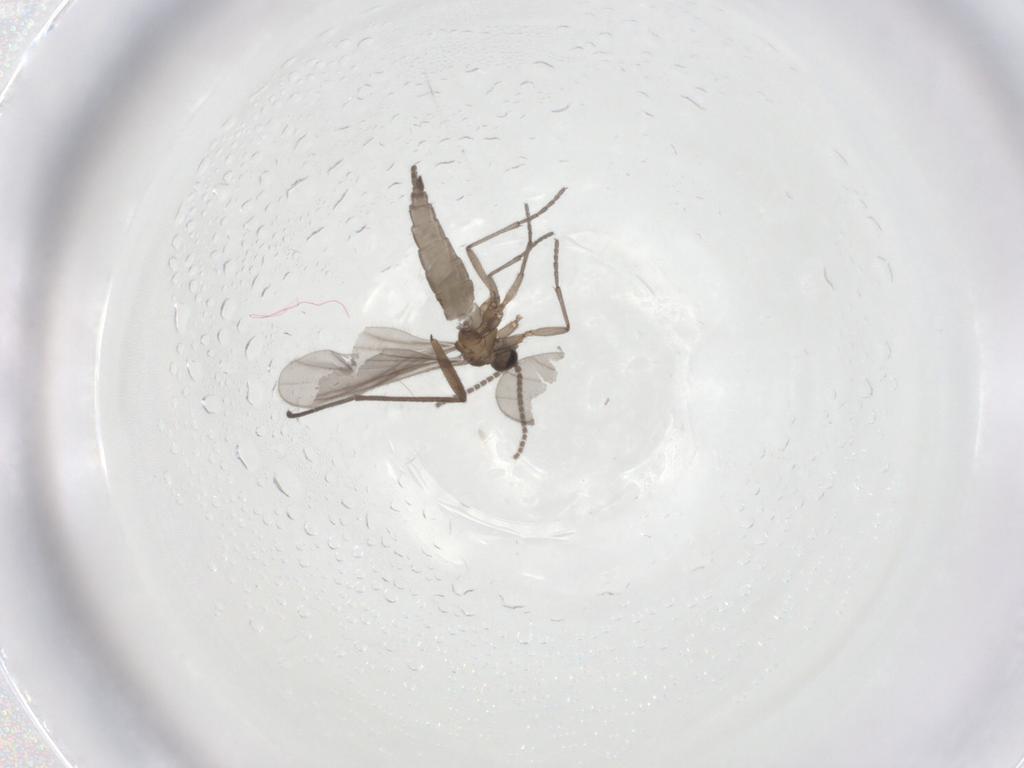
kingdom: Animalia
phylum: Arthropoda
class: Insecta
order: Diptera
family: Sciaridae
